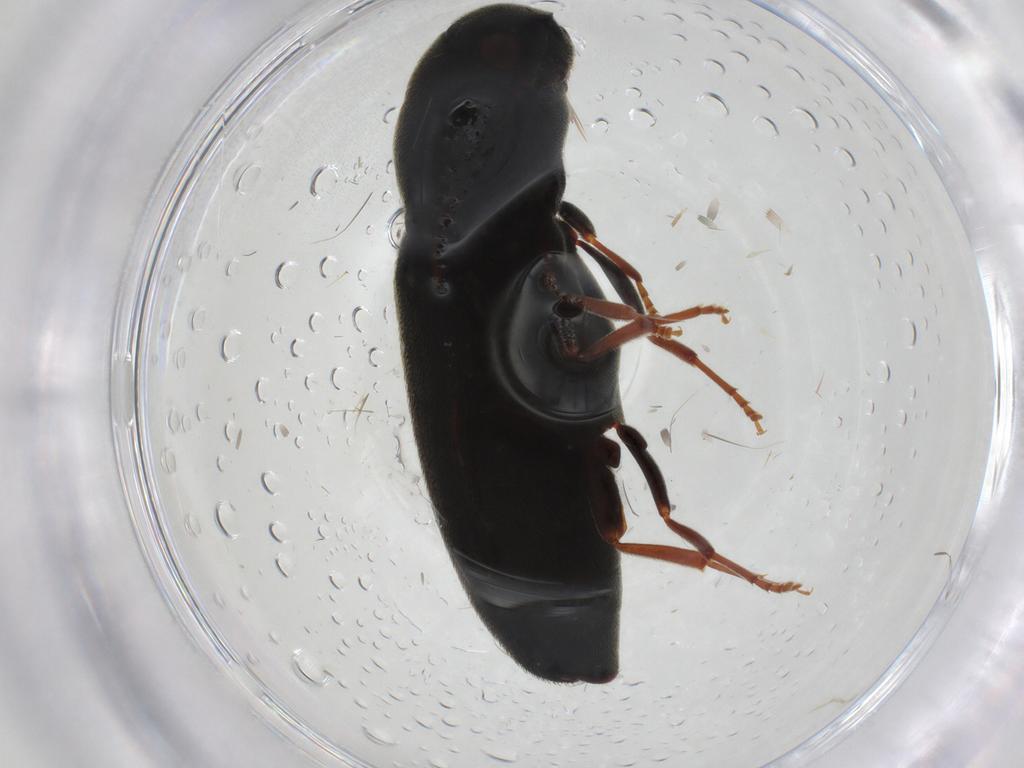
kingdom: Animalia
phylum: Arthropoda
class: Insecta
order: Coleoptera
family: Eucnemidae
